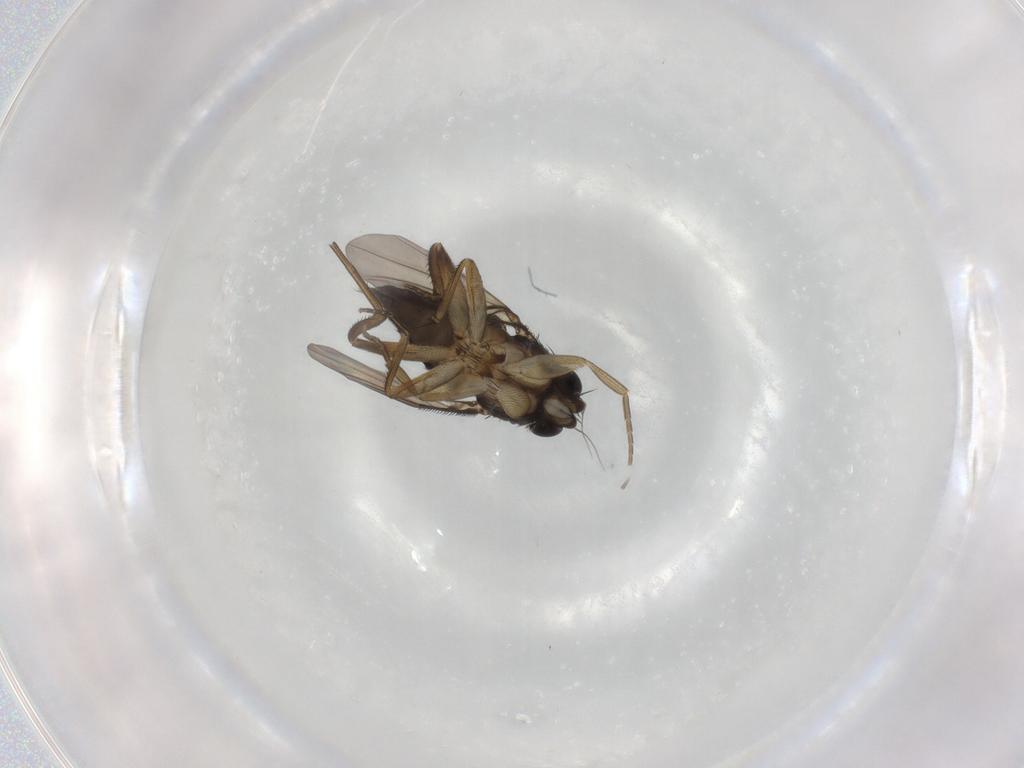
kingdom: Animalia
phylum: Arthropoda
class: Insecta
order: Diptera
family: Phoridae
